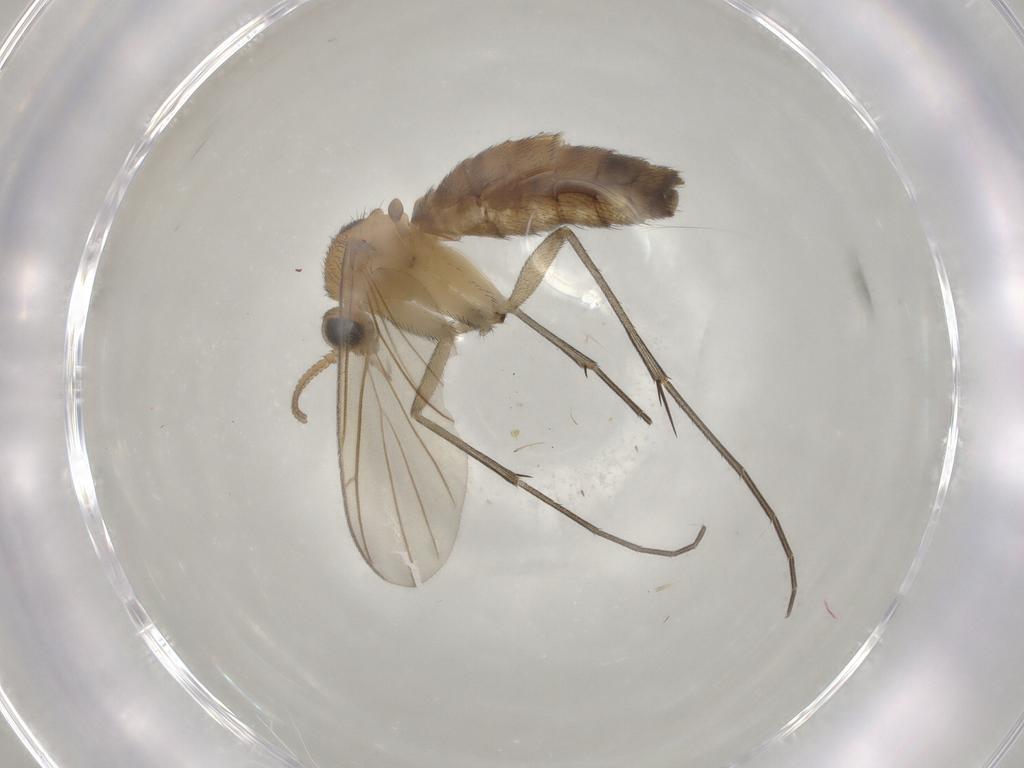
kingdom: Animalia
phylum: Arthropoda
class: Insecta
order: Diptera
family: Keroplatidae
